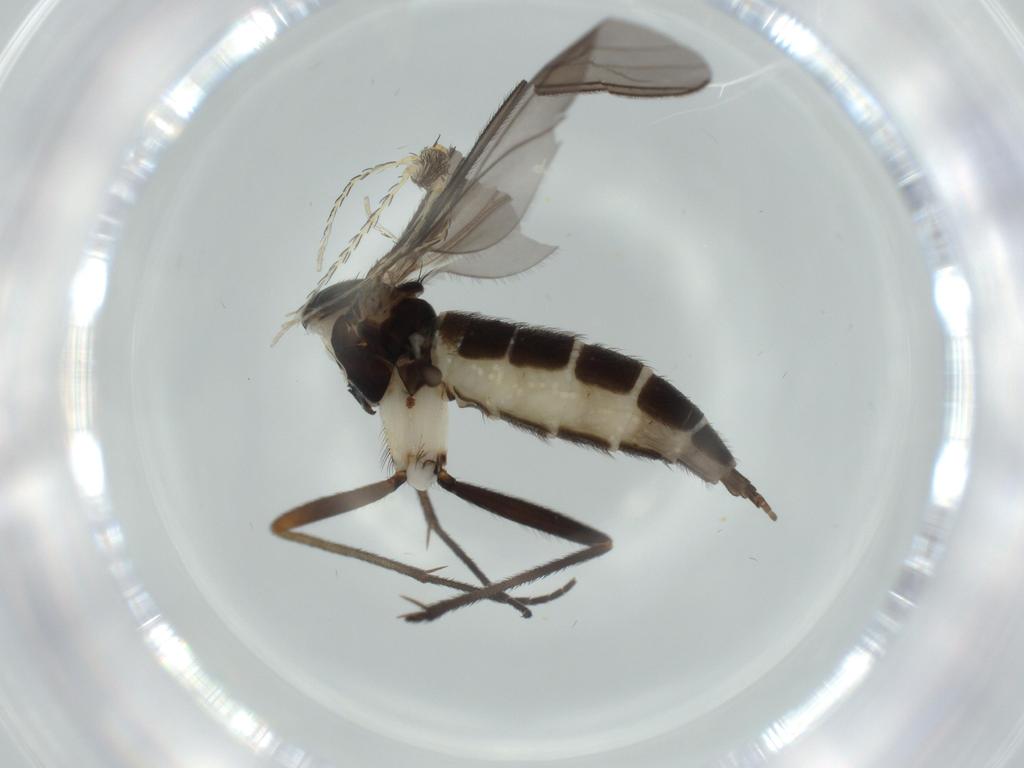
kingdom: Animalia
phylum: Arthropoda
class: Insecta
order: Diptera
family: Sciaridae
